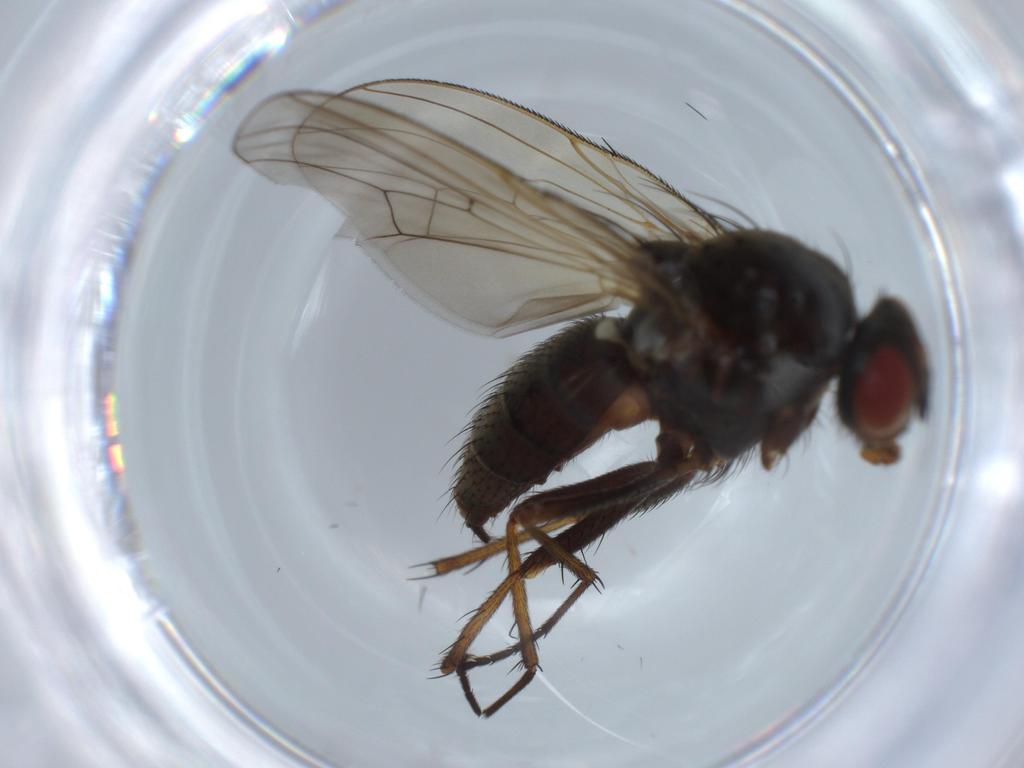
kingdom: Animalia
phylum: Arthropoda
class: Insecta
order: Diptera
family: Anthomyiidae
